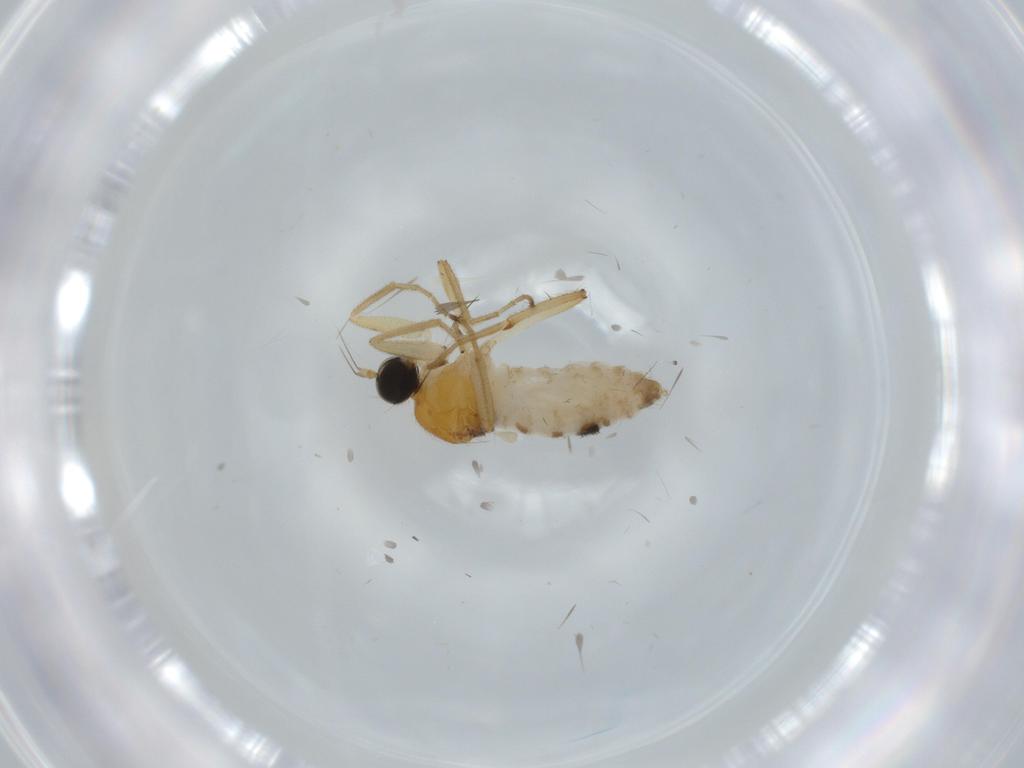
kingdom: Animalia
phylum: Arthropoda
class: Insecta
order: Diptera
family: Hybotidae
